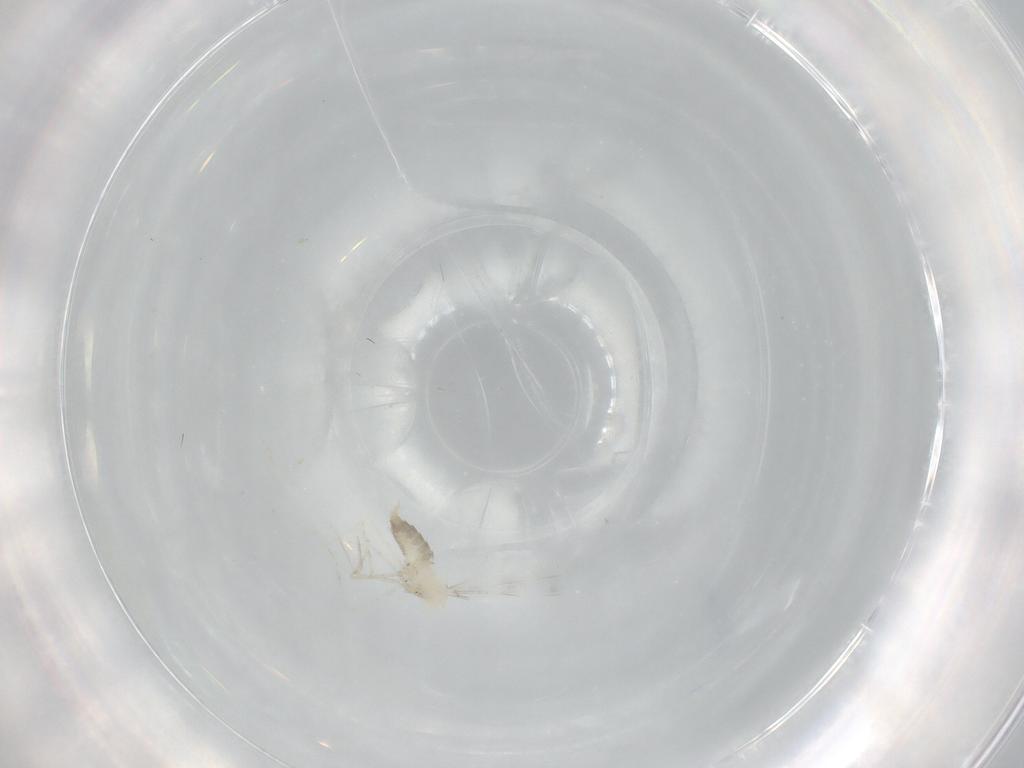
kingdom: Animalia
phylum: Arthropoda
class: Insecta
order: Diptera
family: Cecidomyiidae
